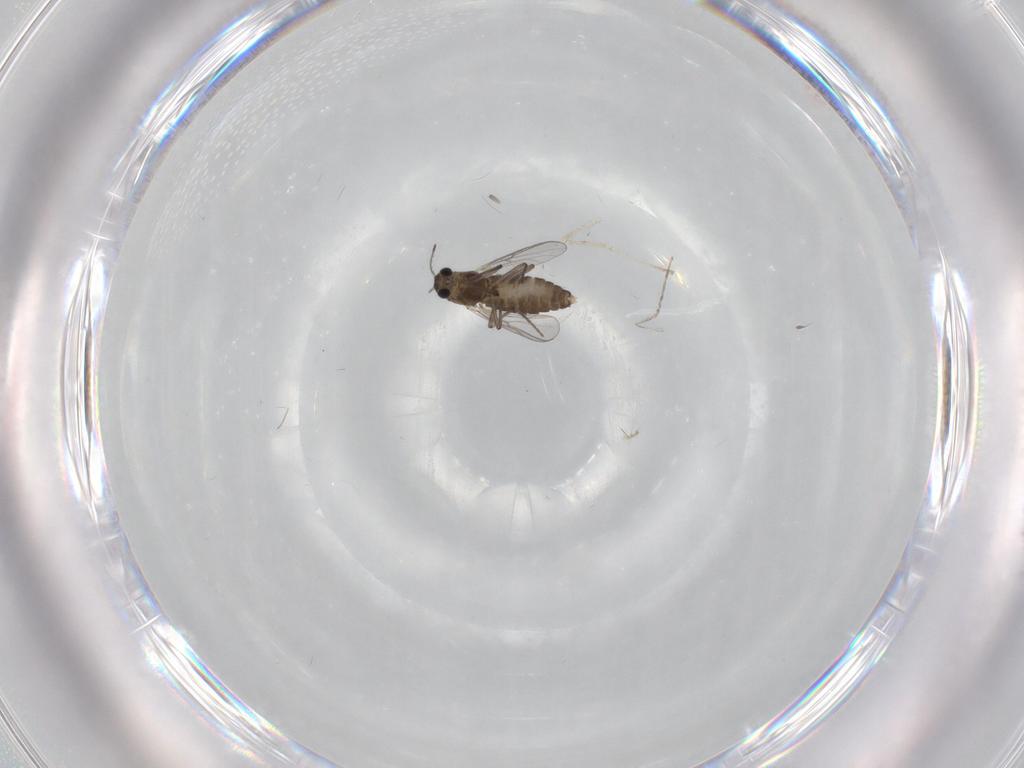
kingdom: Animalia
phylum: Arthropoda
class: Insecta
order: Diptera
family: Chironomidae
